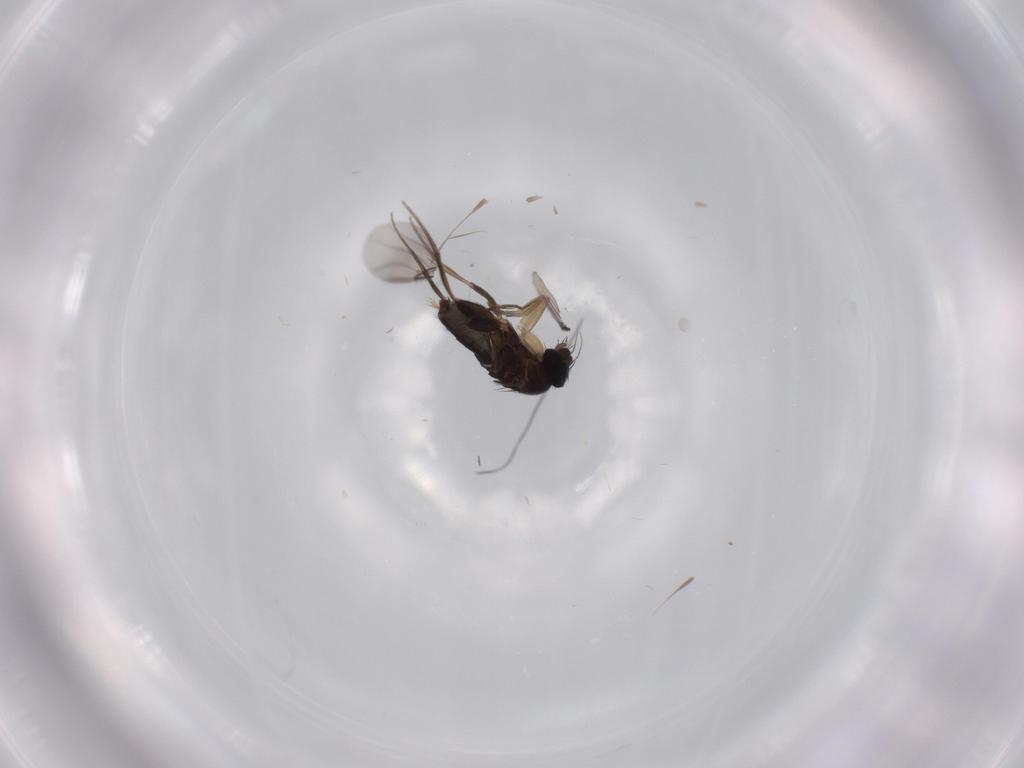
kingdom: Animalia
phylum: Arthropoda
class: Insecta
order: Diptera
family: Phoridae
